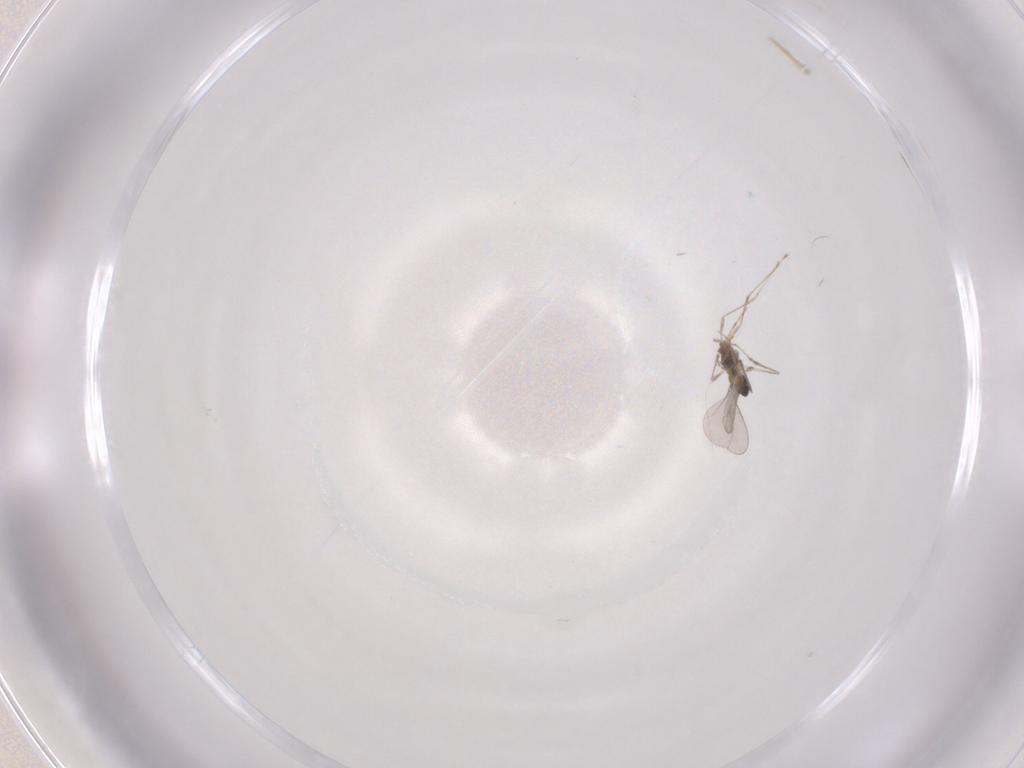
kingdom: Animalia
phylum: Arthropoda
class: Insecta
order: Diptera
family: Cecidomyiidae
